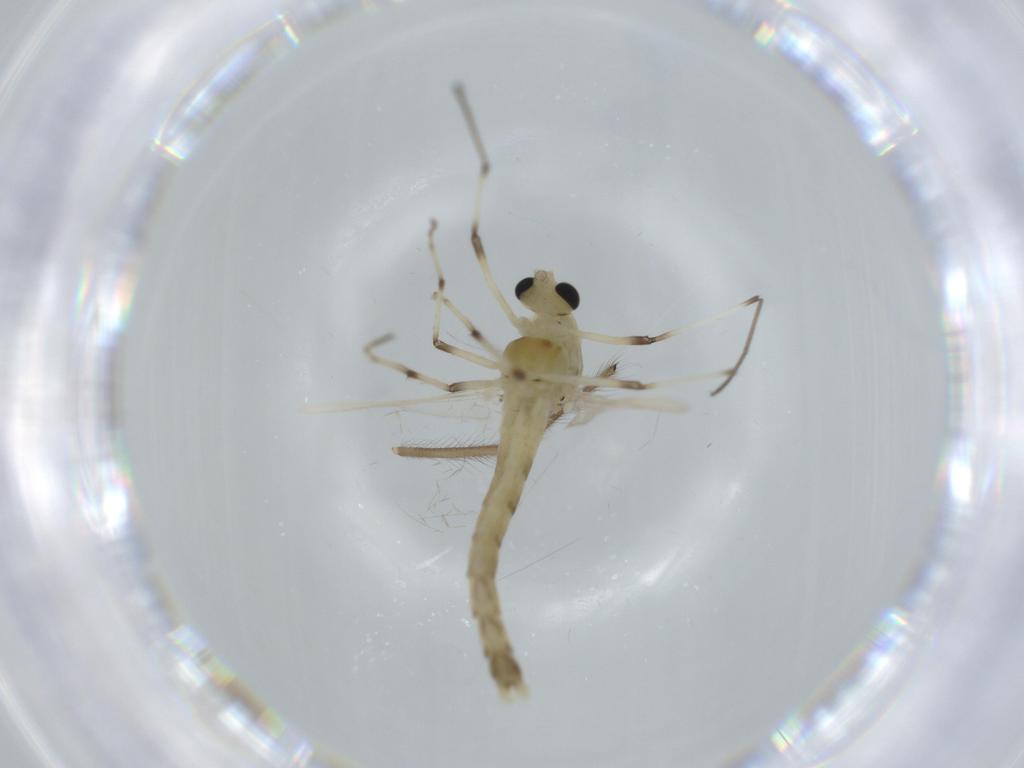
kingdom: Animalia
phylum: Arthropoda
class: Insecta
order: Diptera
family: Chironomidae
